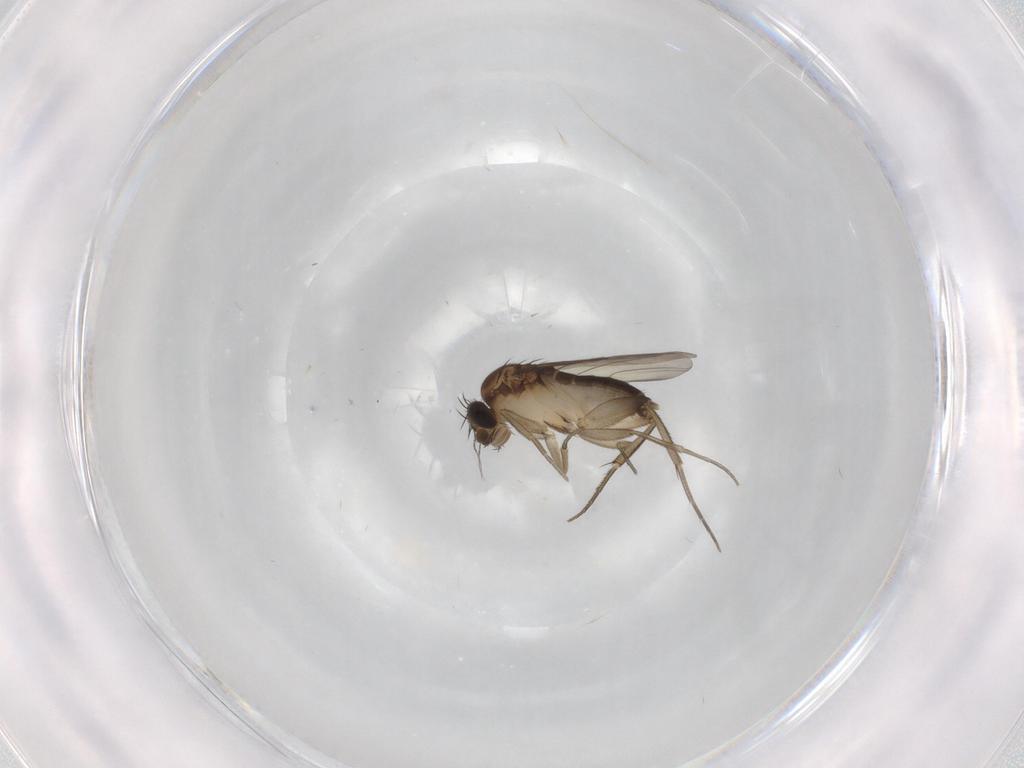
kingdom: Animalia
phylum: Arthropoda
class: Insecta
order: Diptera
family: Phoridae
